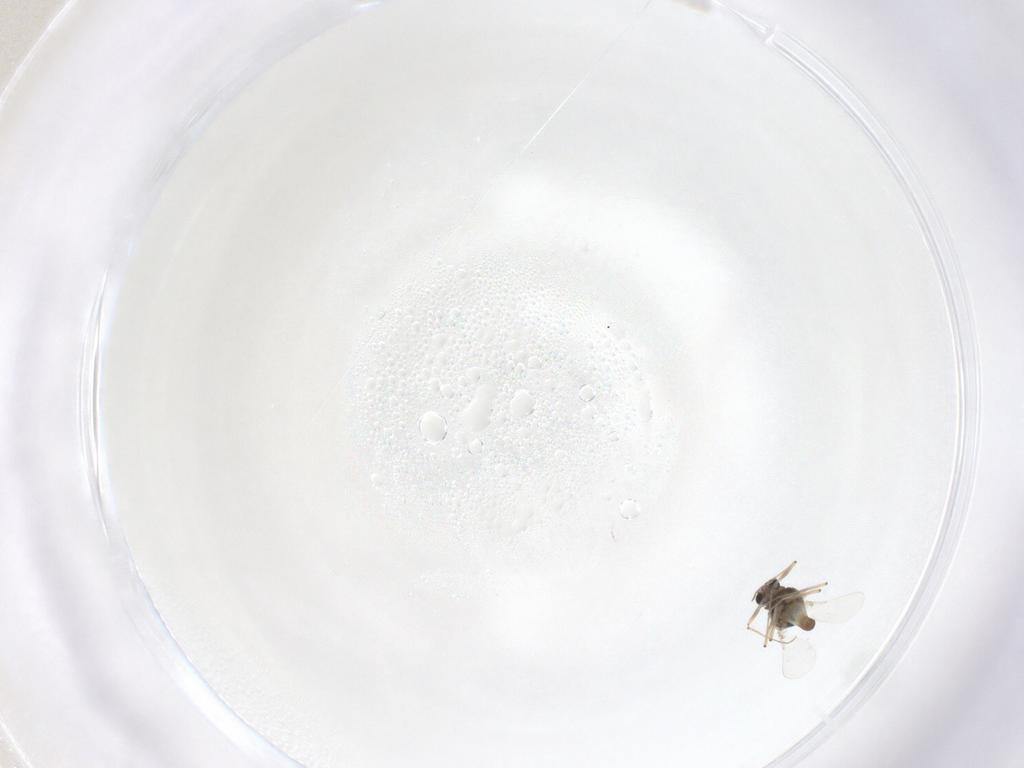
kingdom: Animalia
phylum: Arthropoda
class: Insecta
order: Diptera
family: Chironomidae
